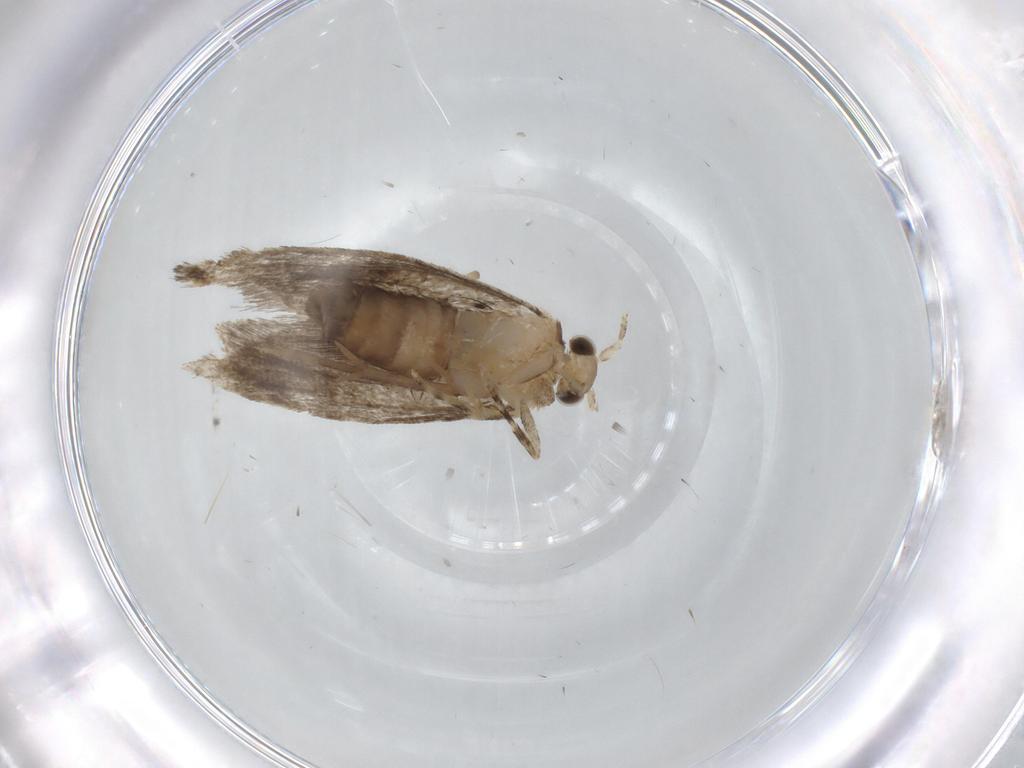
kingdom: Animalia
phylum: Arthropoda
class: Insecta
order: Lepidoptera
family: Tineidae
